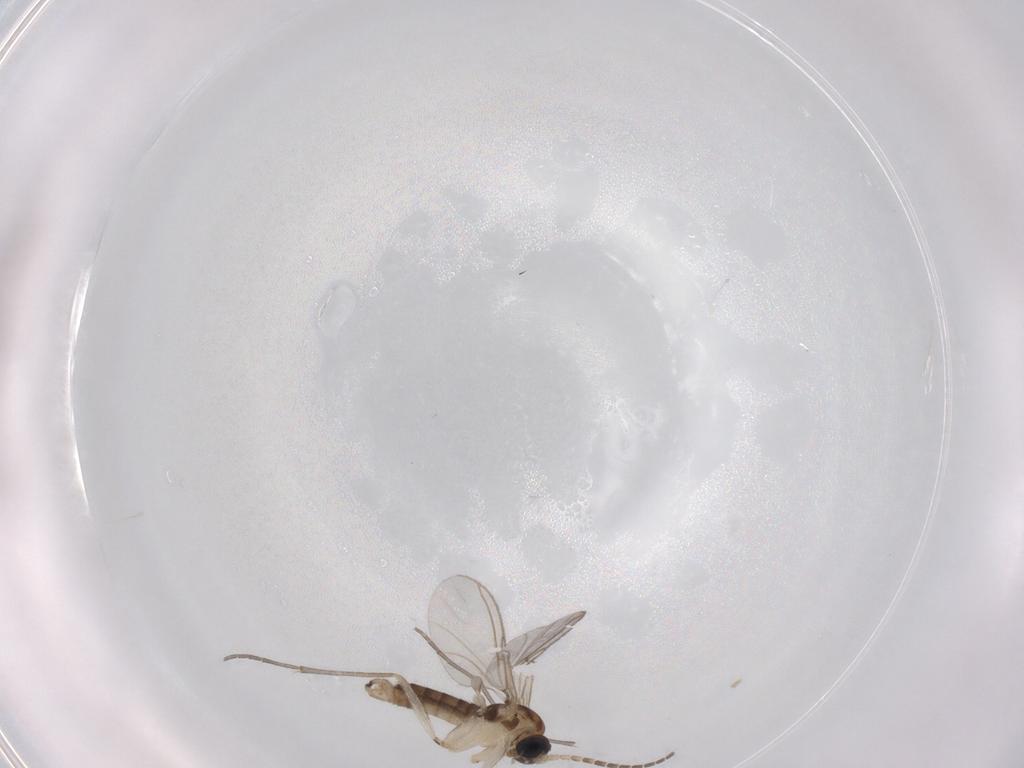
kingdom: Animalia
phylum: Arthropoda
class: Insecta
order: Diptera
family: Sciaridae
